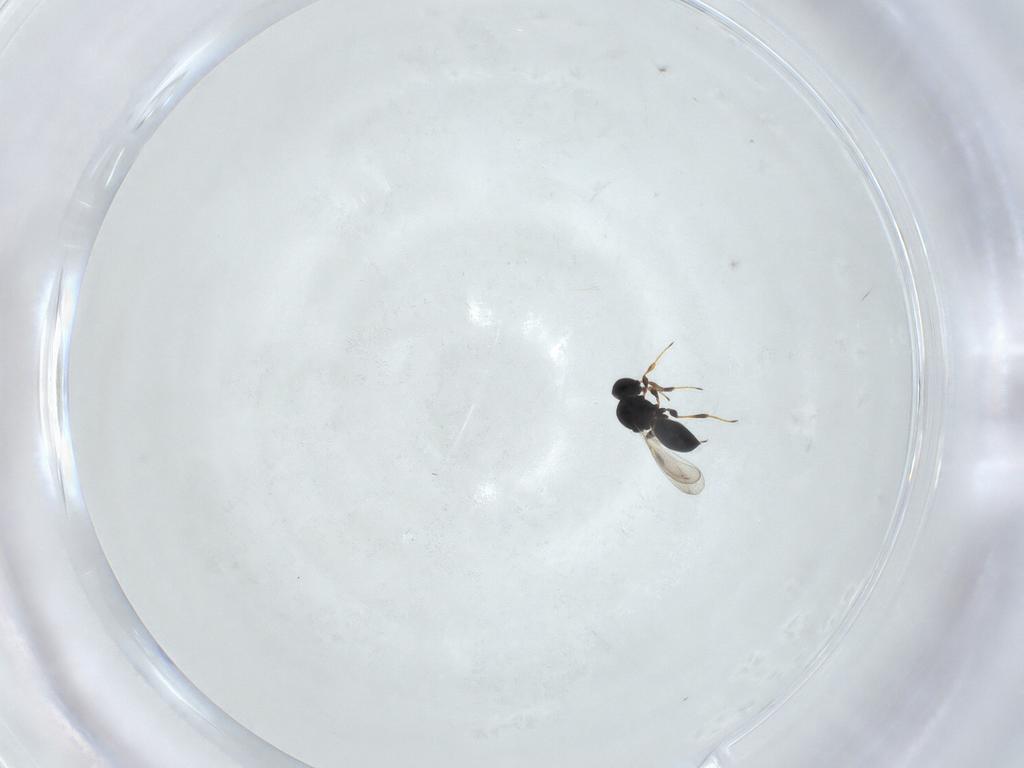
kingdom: Animalia
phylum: Arthropoda
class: Insecta
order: Hymenoptera
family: Platygastridae
